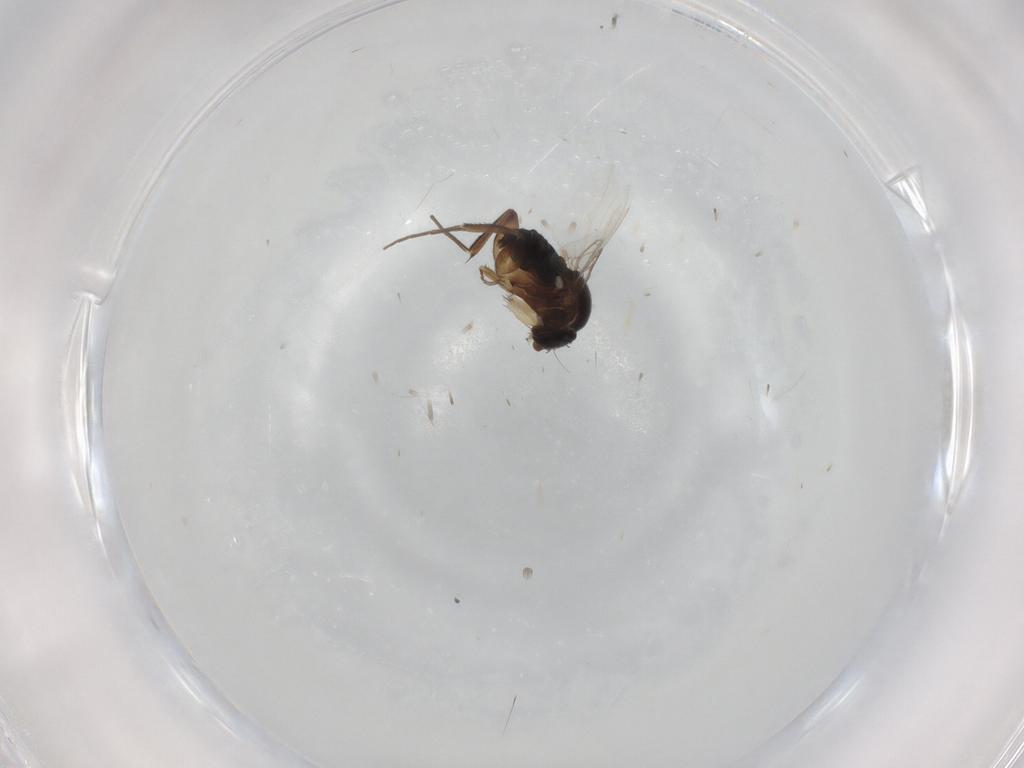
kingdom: Animalia
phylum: Arthropoda
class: Insecta
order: Diptera
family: Phoridae
